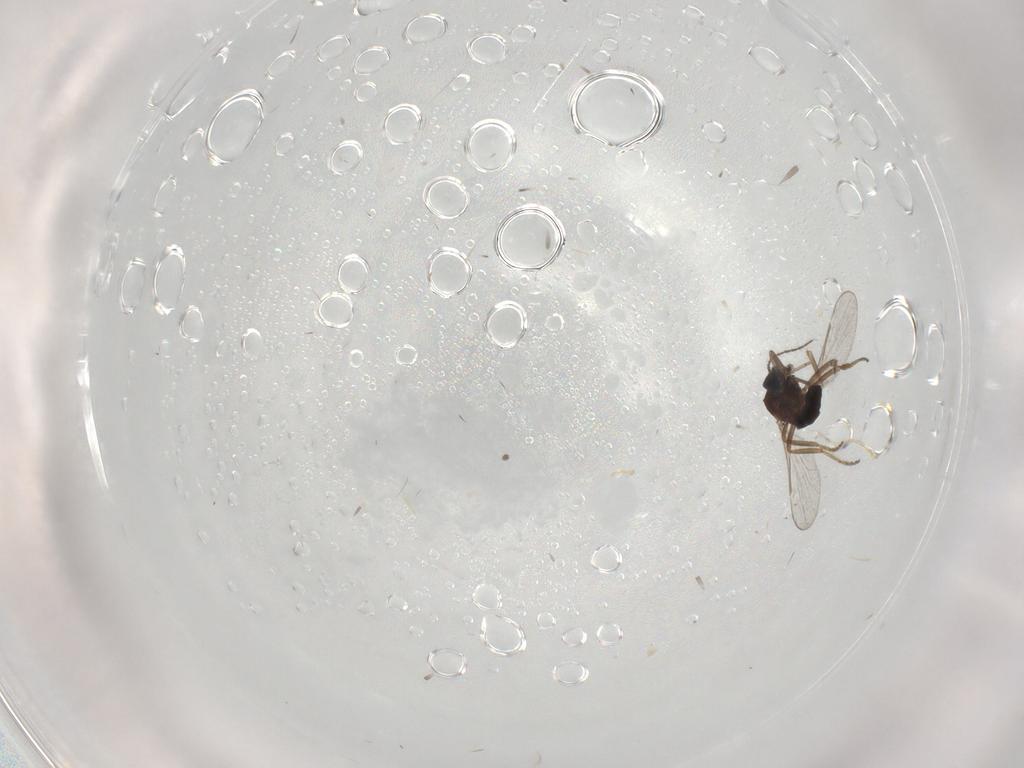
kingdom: Animalia
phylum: Arthropoda
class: Insecta
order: Diptera
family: Ceratopogonidae
